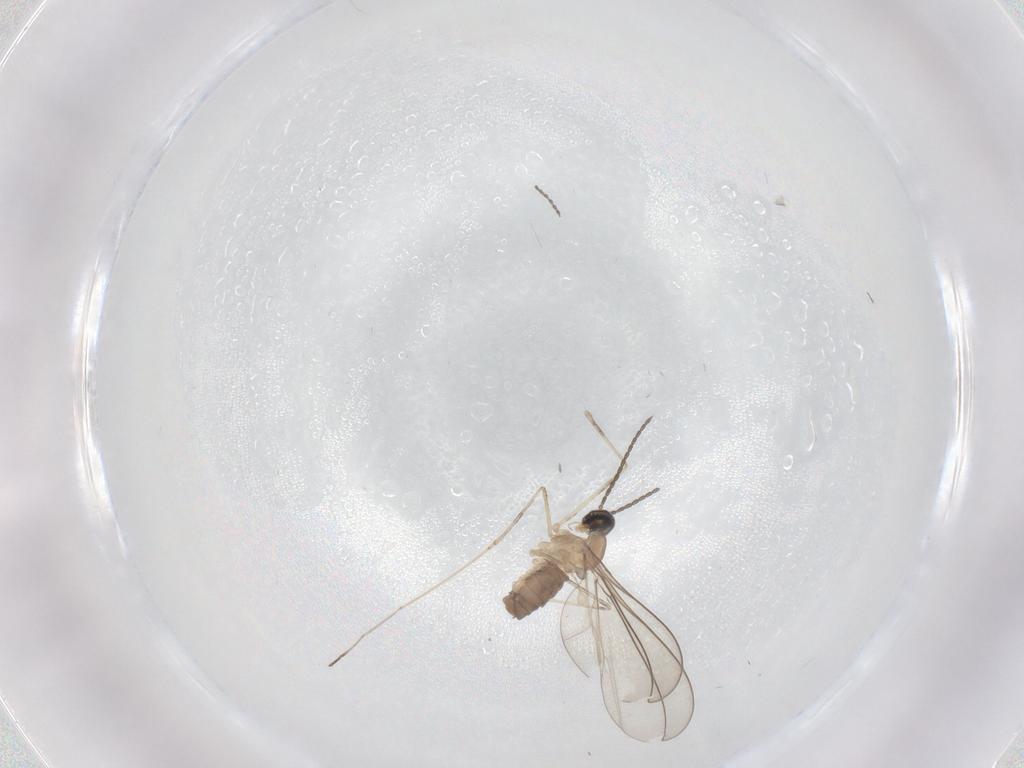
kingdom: Animalia
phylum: Arthropoda
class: Insecta
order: Diptera
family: Cecidomyiidae
